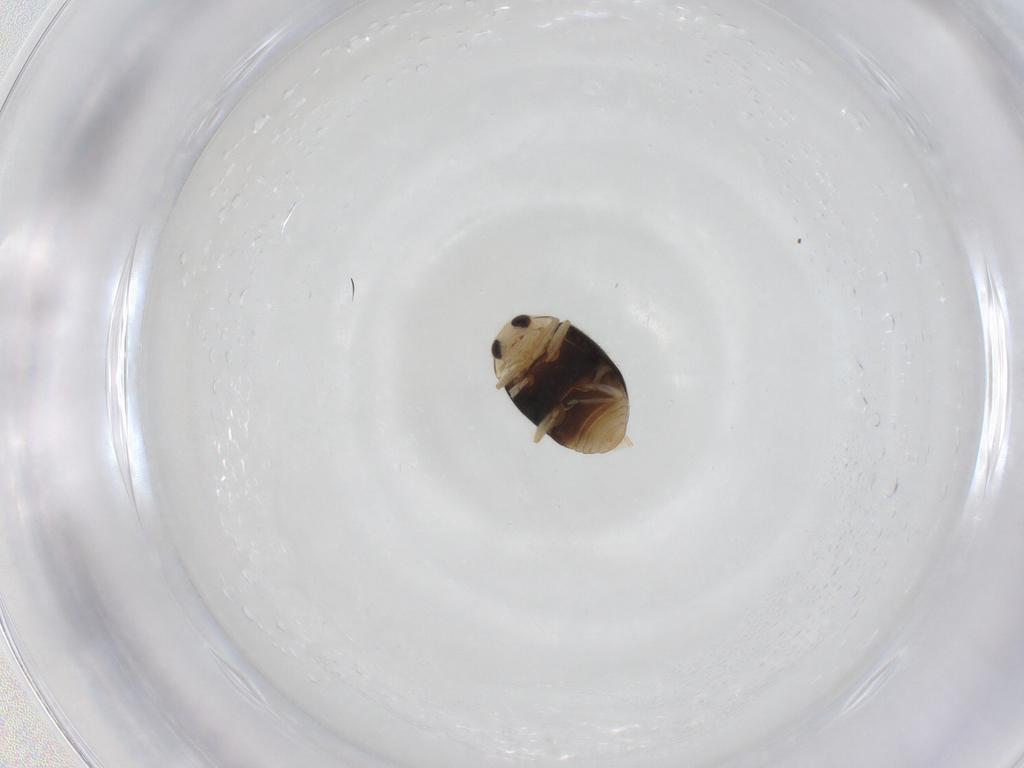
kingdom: Animalia
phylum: Arthropoda
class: Insecta
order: Coleoptera
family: Coccinellidae
